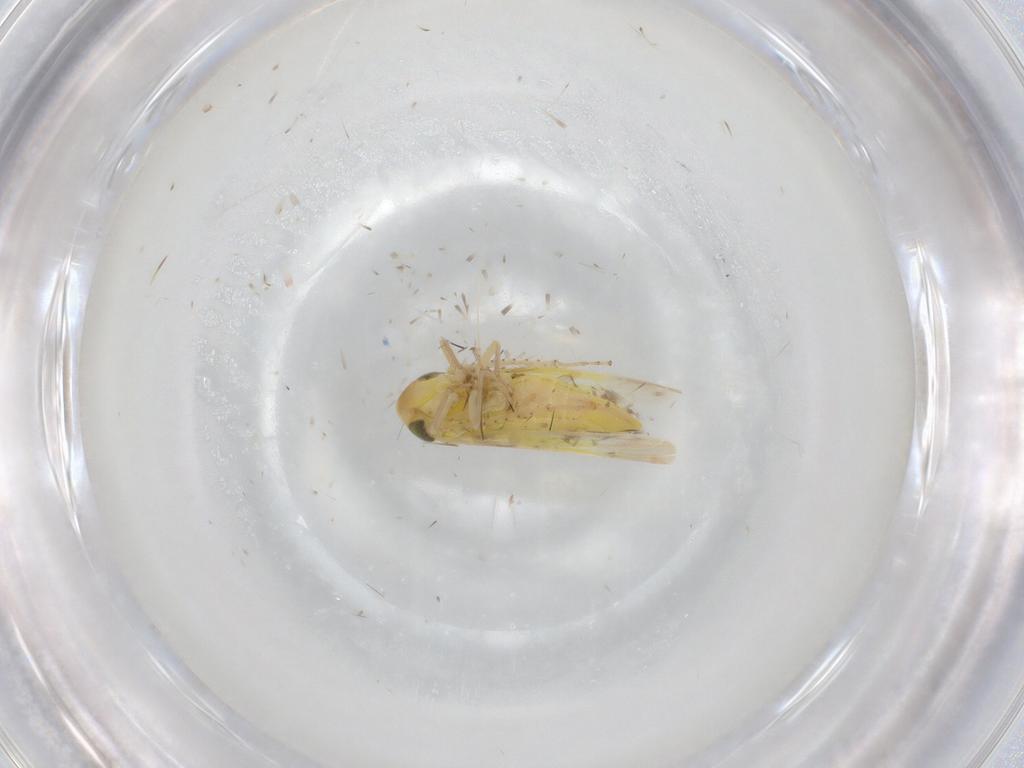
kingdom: Animalia
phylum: Arthropoda
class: Insecta
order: Hemiptera
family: Cicadellidae
